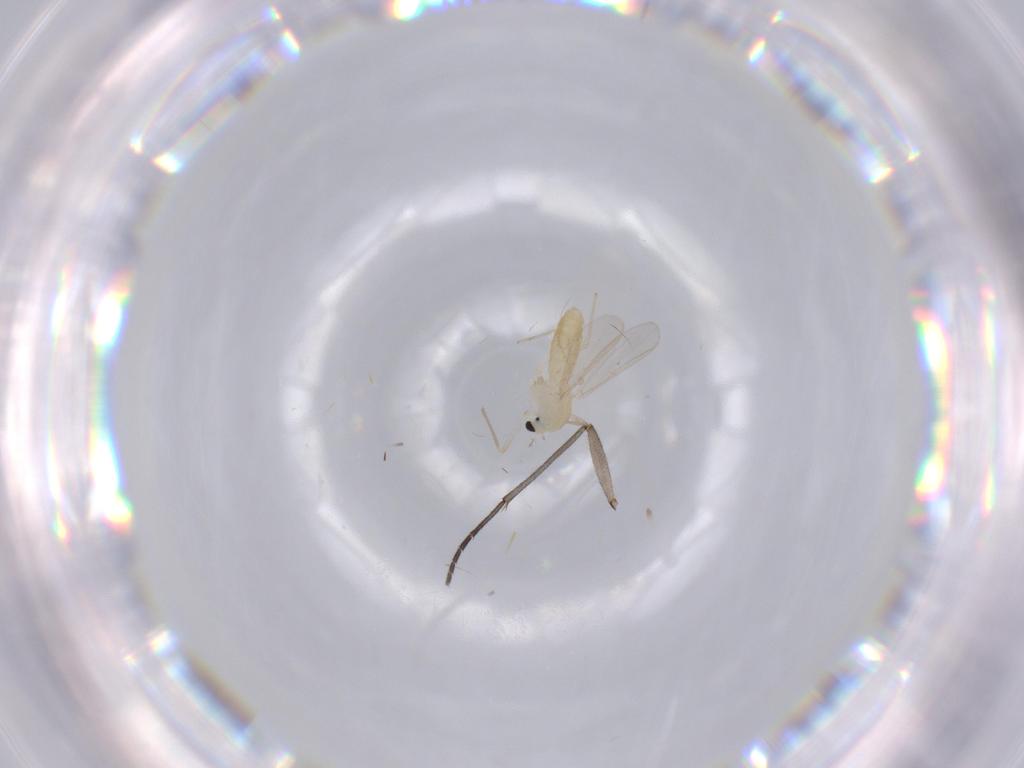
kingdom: Animalia
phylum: Arthropoda
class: Insecta
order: Diptera
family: Sciaridae
